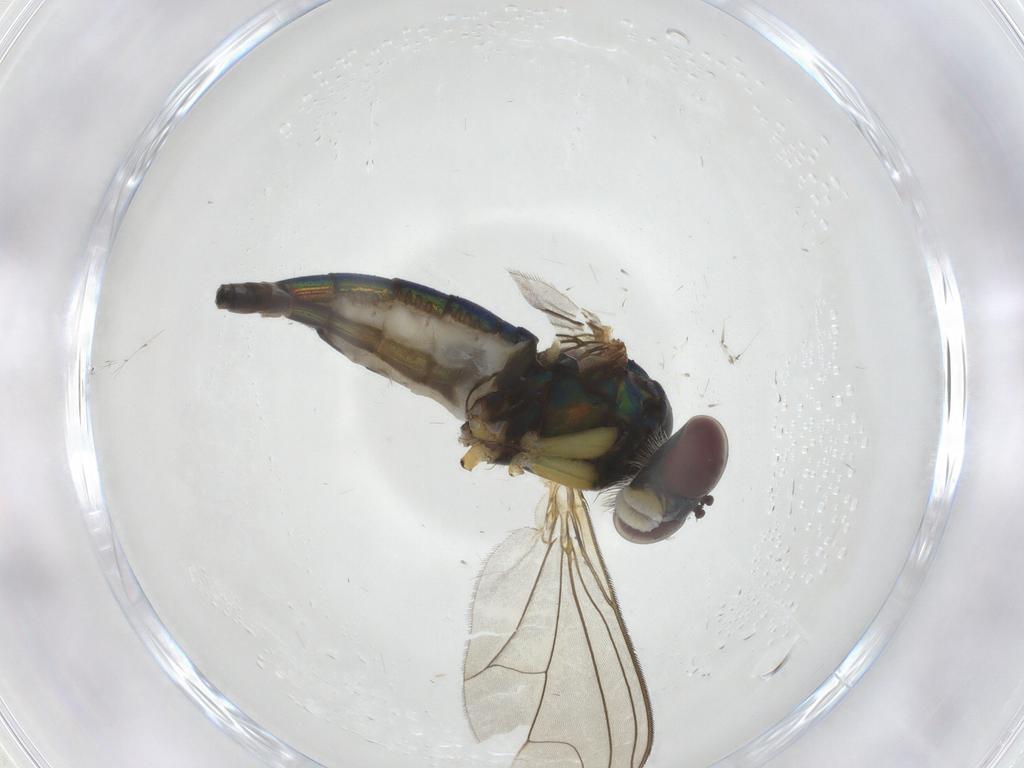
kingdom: Animalia
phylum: Arthropoda
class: Insecta
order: Diptera
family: Dolichopodidae
